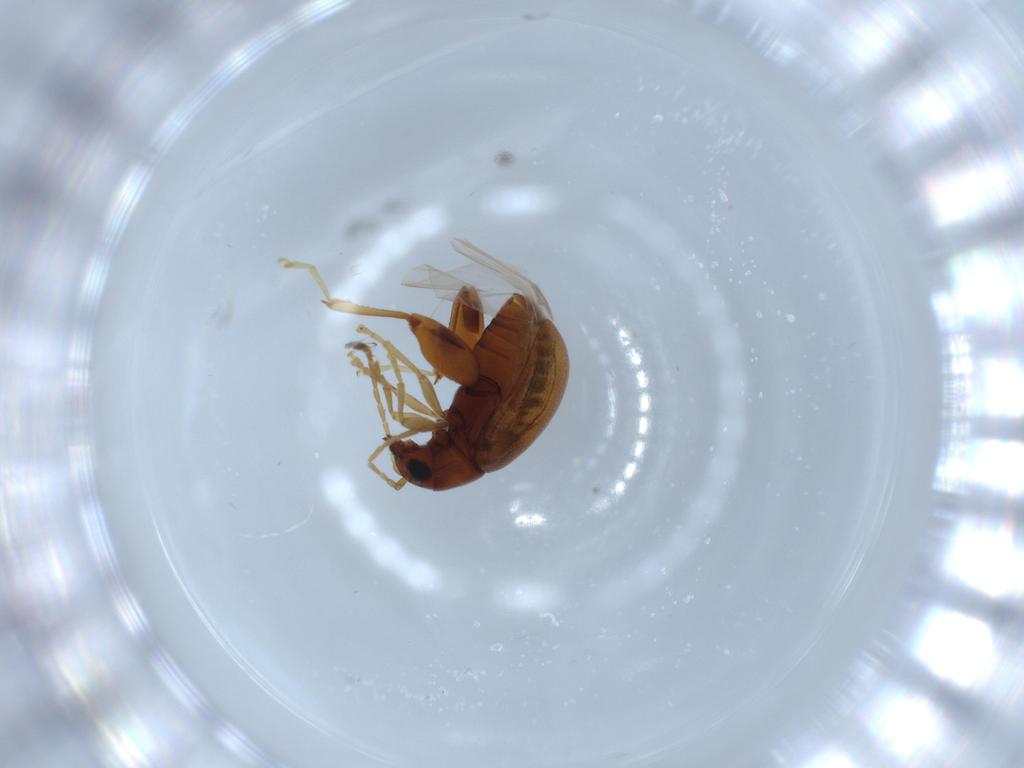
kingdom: Animalia
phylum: Arthropoda
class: Insecta
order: Coleoptera
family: Chrysomelidae
